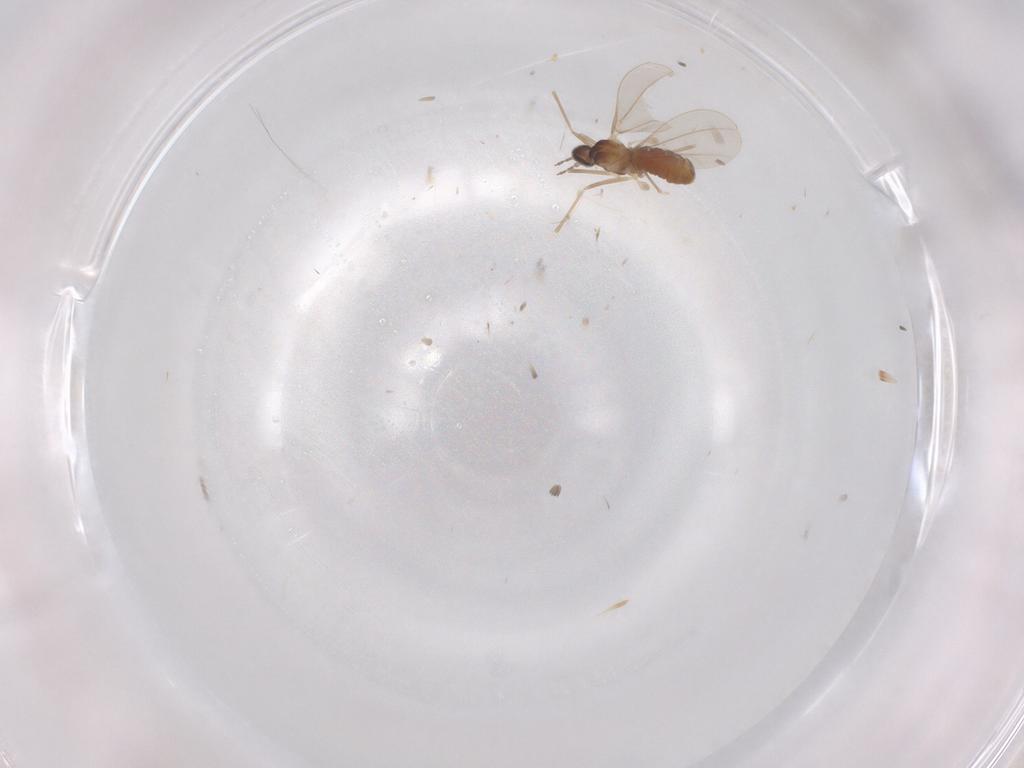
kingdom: Animalia
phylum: Arthropoda
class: Insecta
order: Diptera
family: Cecidomyiidae
